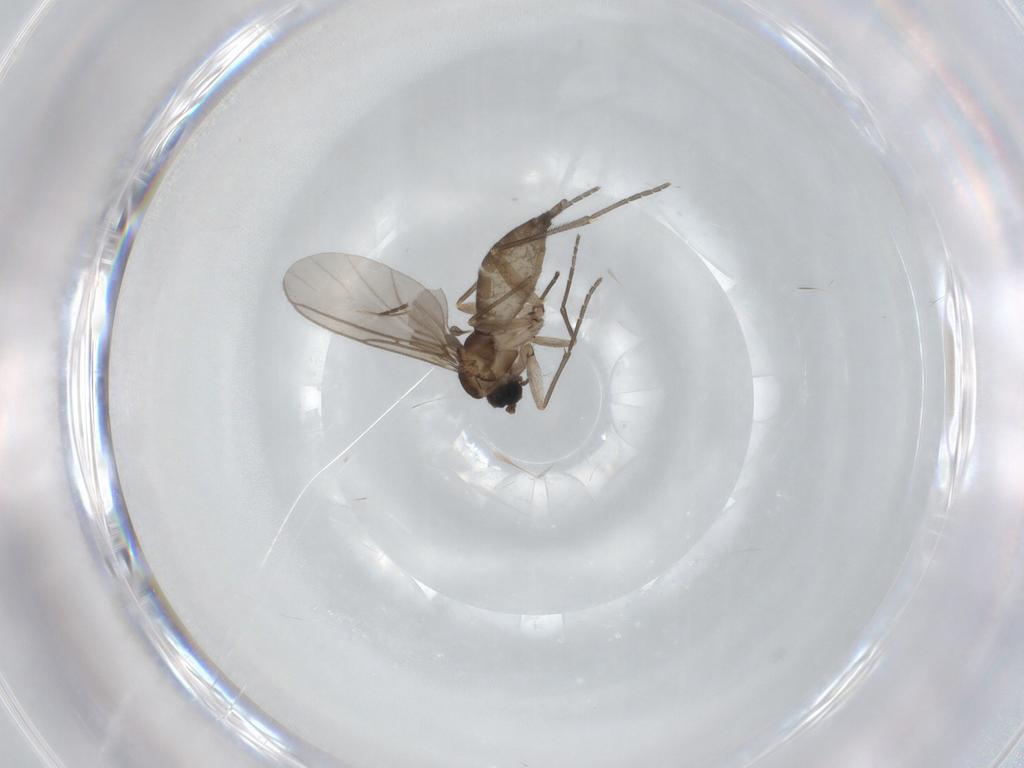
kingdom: Animalia
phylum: Arthropoda
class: Insecta
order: Diptera
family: Sciaridae
